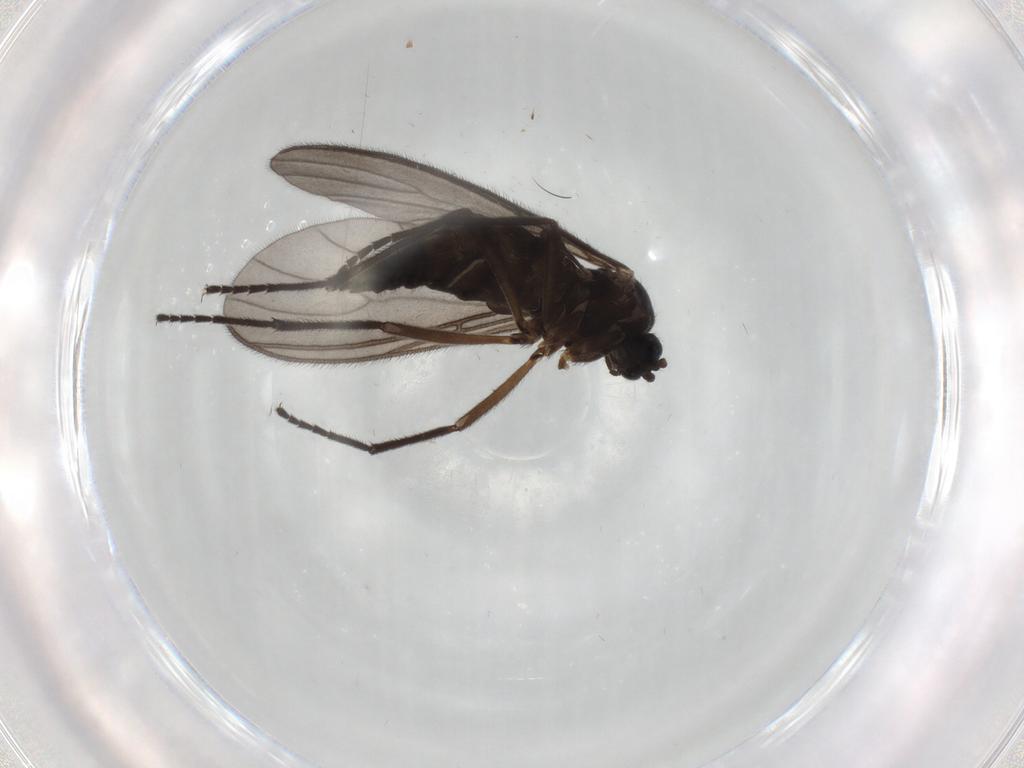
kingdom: Animalia
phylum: Arthropoda
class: Insecta
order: Diptera
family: Sciaridae
